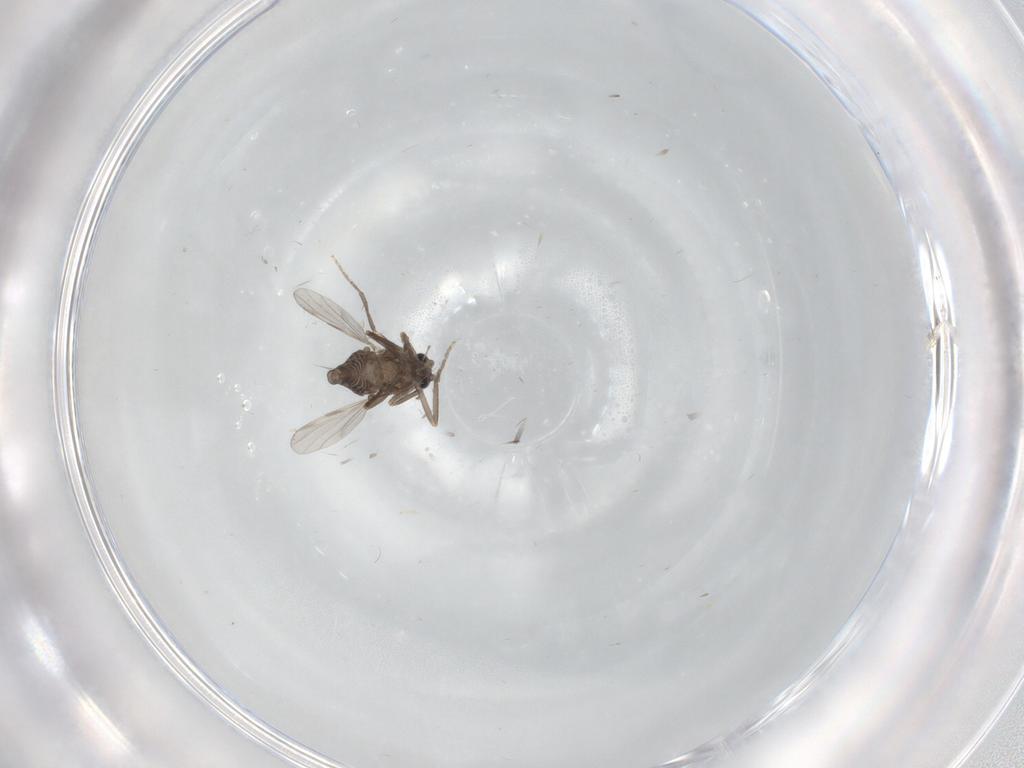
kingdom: Animalia
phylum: Arthropoda
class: Insecta
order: Diptera
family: Ceratopogonidae
